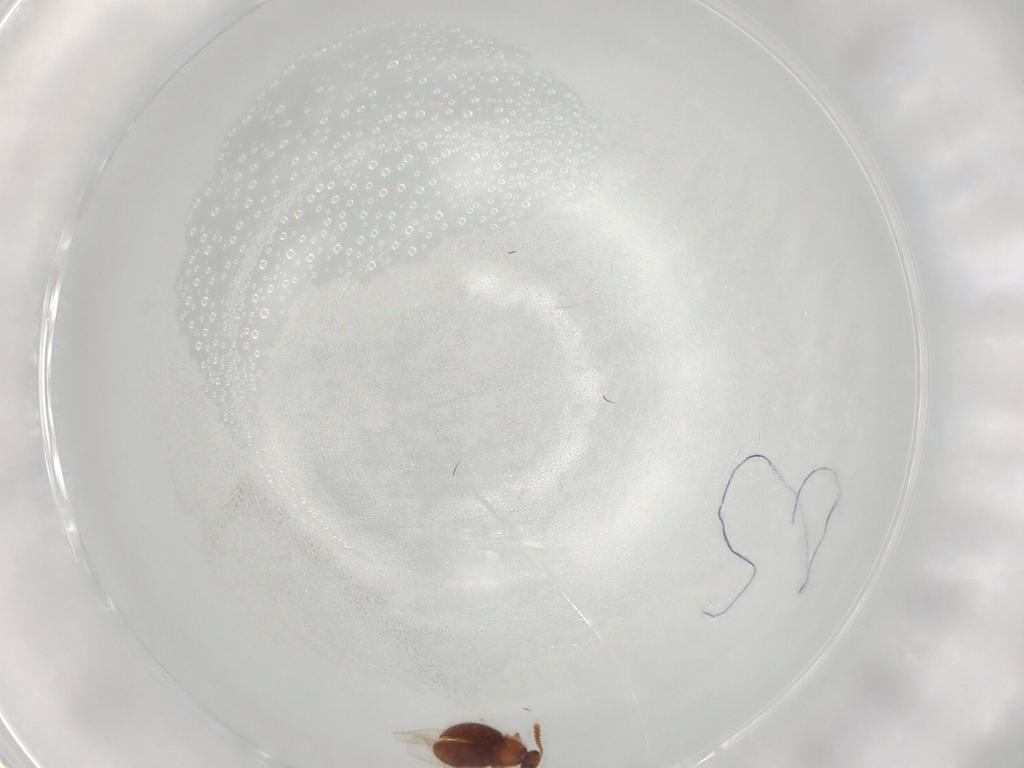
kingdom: Animalia
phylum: Arthropoda
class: Insecta
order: Coleoptera
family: Staphylinidae
